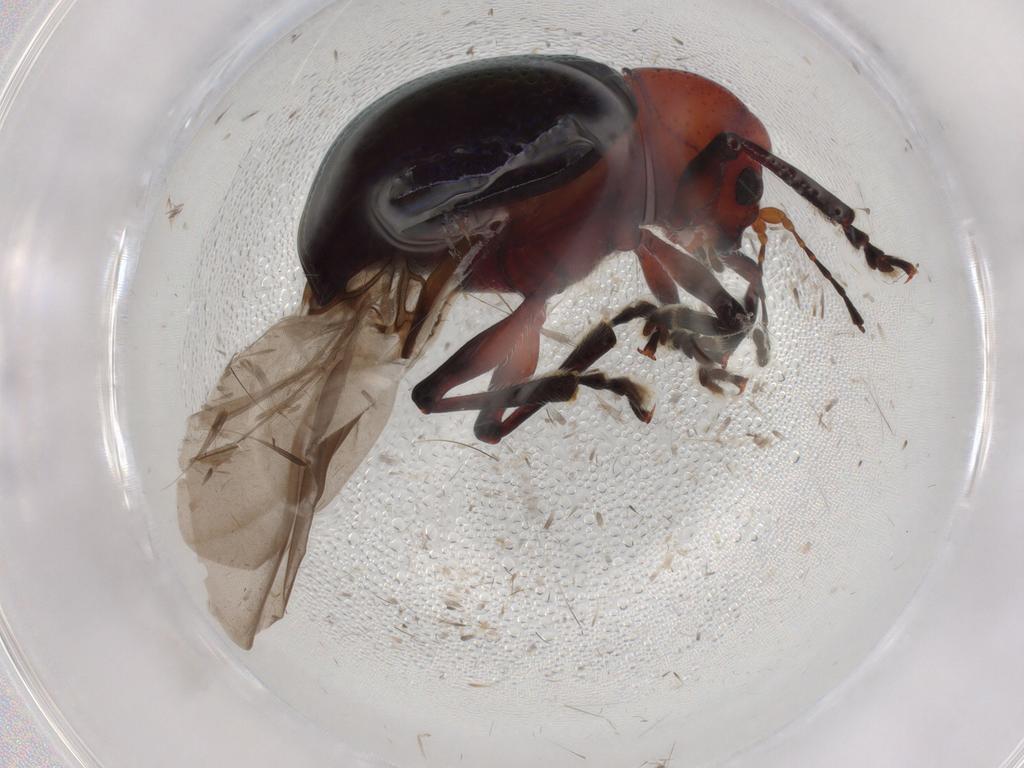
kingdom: Animalia
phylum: Arthropoda
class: Insecta
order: Coleoptera
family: Chrysomelidae
